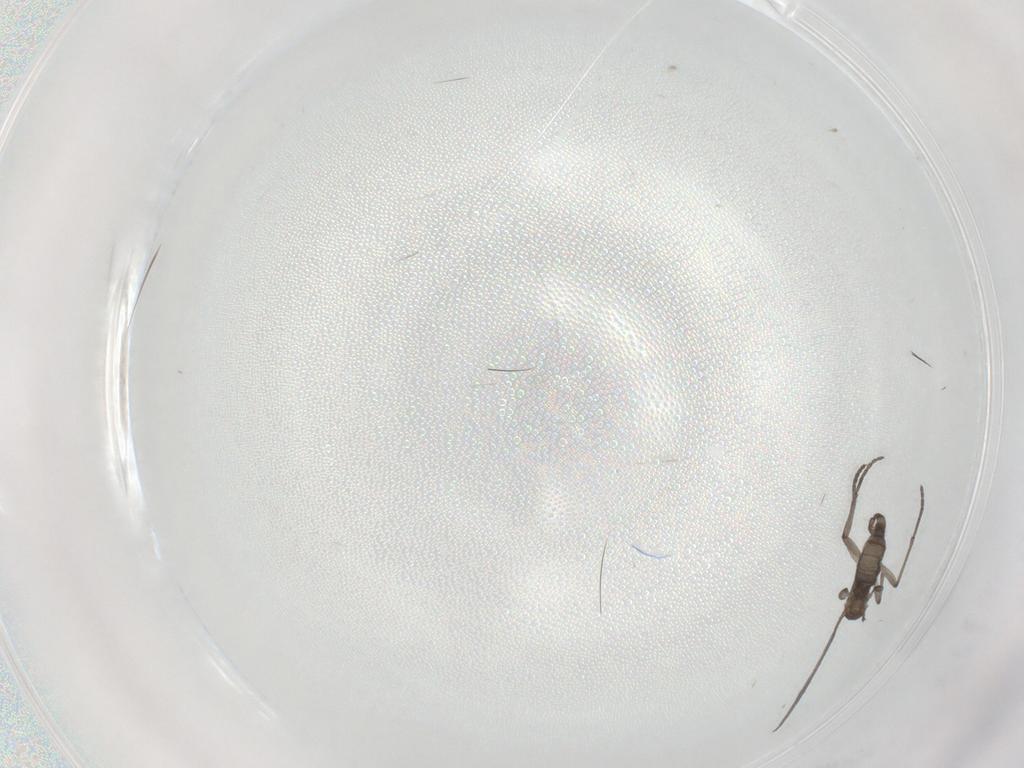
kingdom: Animalia
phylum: Arthropoda
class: Insecta
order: Diptera
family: Sciaridae
